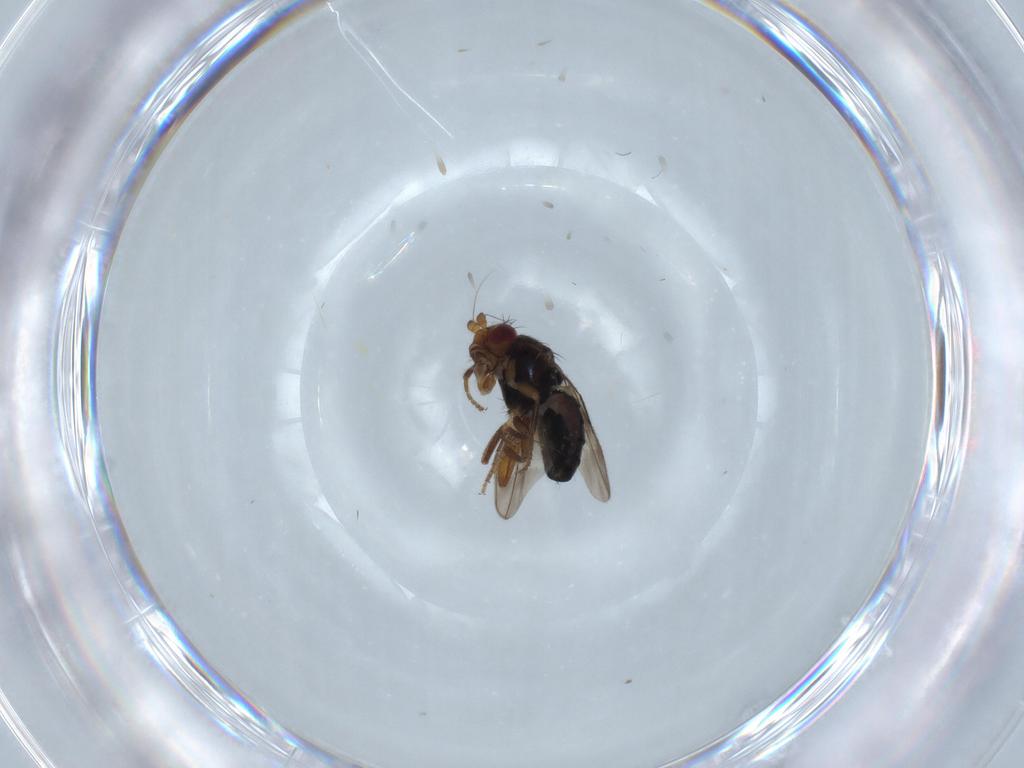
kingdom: Animalia
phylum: Arthropoda
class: Insecta
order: Diptera
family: Sphaeroceridae
